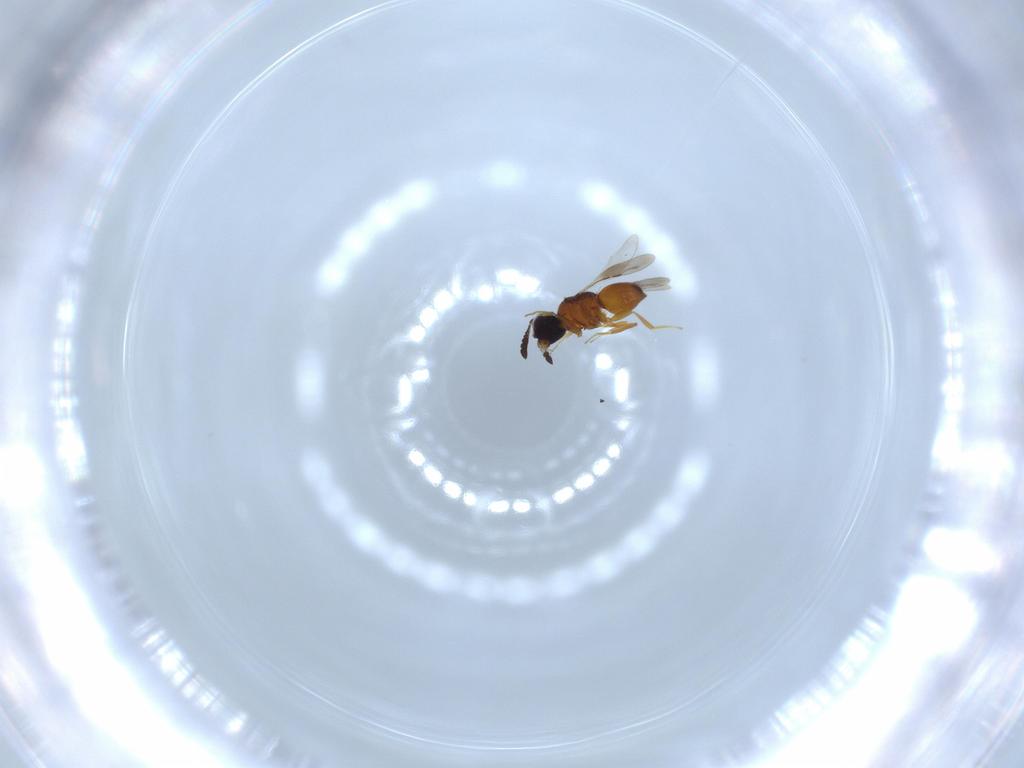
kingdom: Animalia
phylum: Arthropoda
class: Insecta
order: Hymenoptera
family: Ceraphronidae
